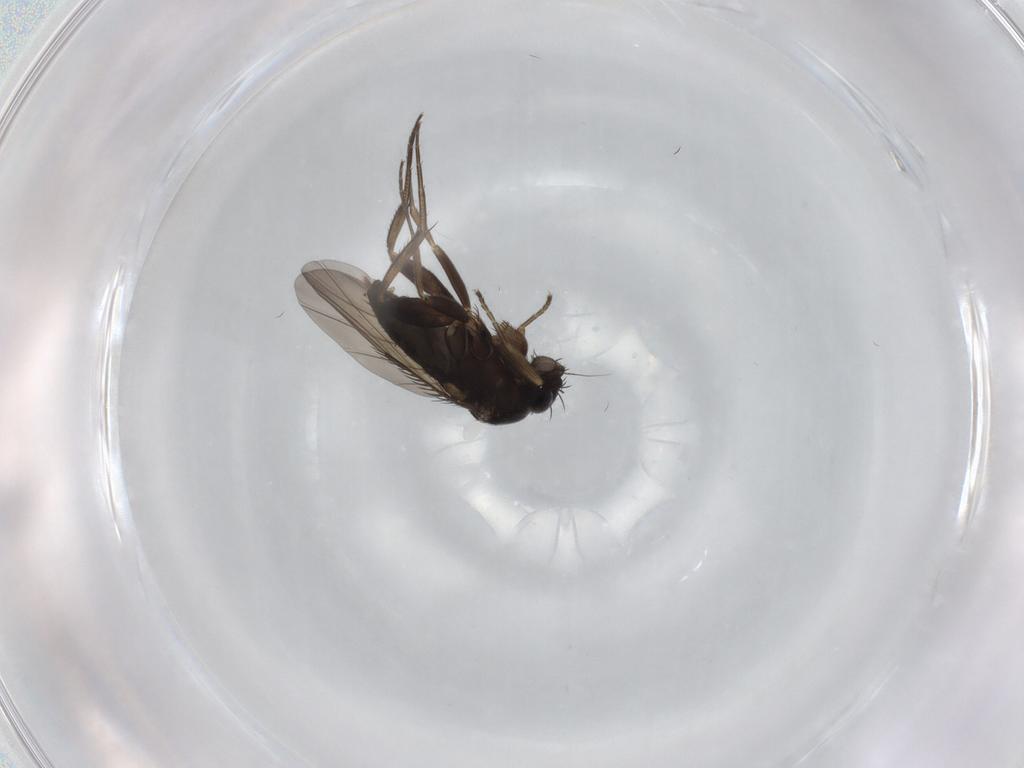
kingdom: Animalia
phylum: Arthropoda
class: Insecta
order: Diptera
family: Phoridae
